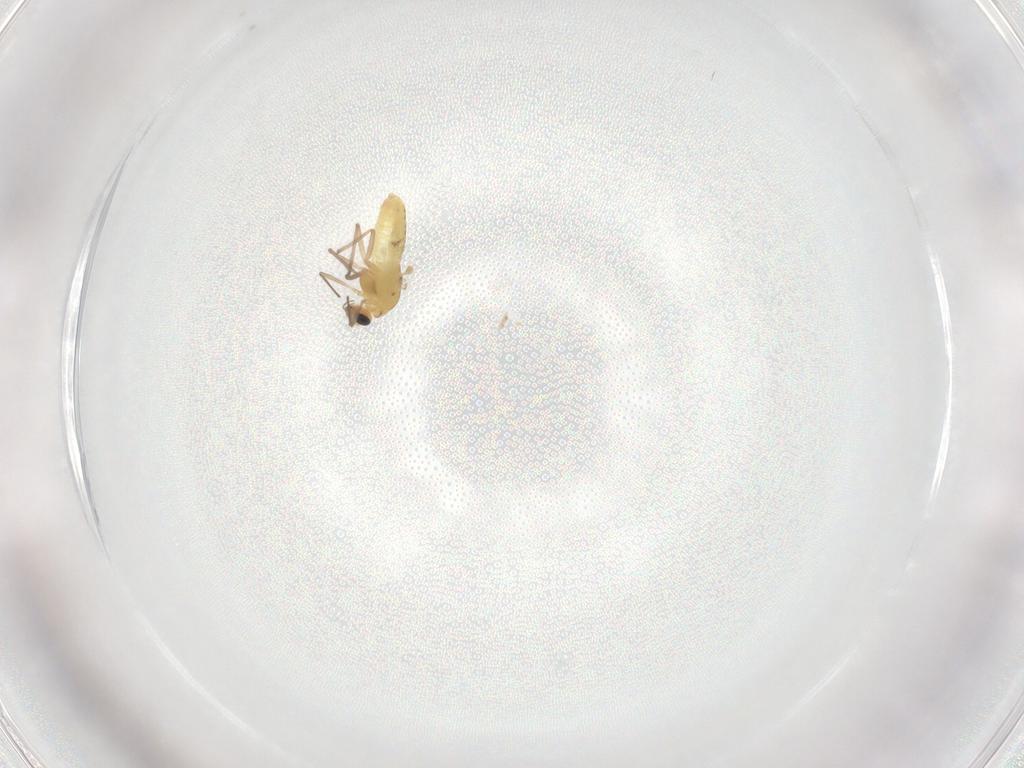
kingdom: Animalia
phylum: Arthropoda
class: Insecta
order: Diptera
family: Chironomidae
